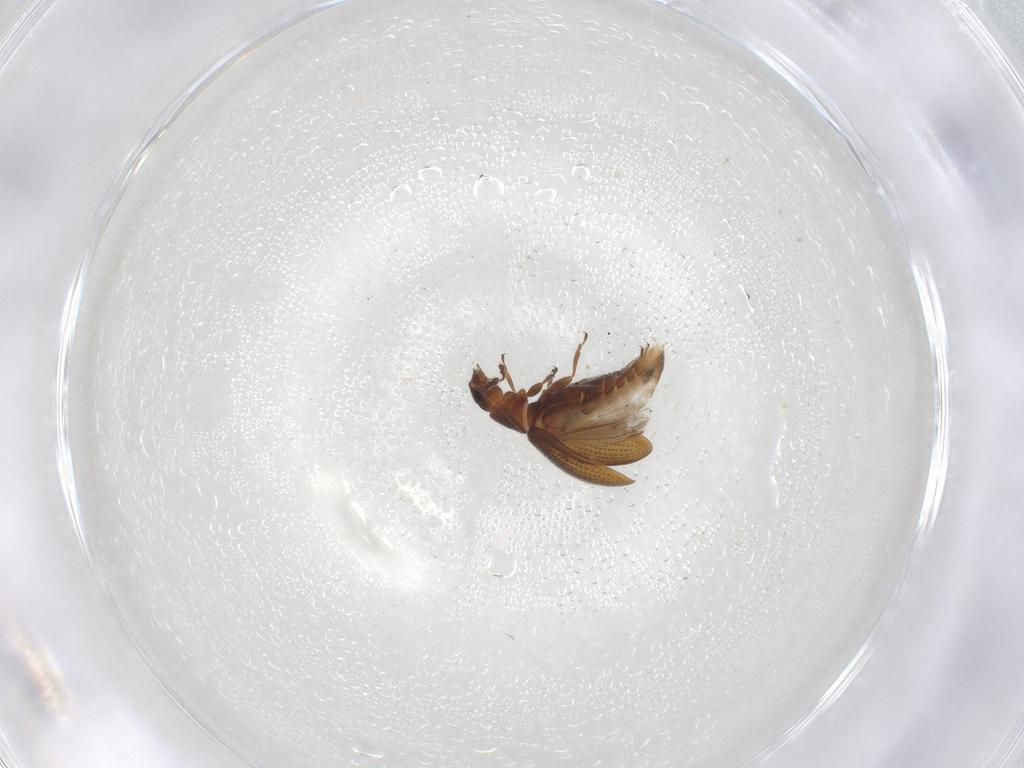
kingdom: Animalia
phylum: Arthropoda
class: Insecta
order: Coleoptera
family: Latridiidae
